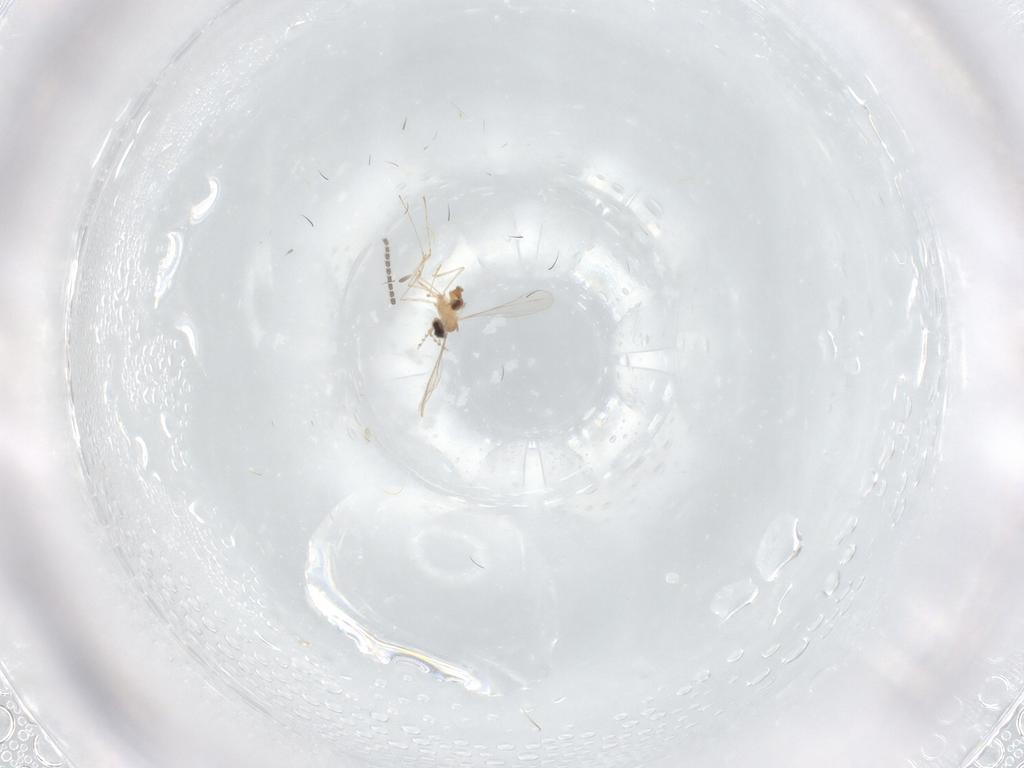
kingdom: Animalia
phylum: Arthropoda
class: Insecta
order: Diptera
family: Cecidomyiidae
